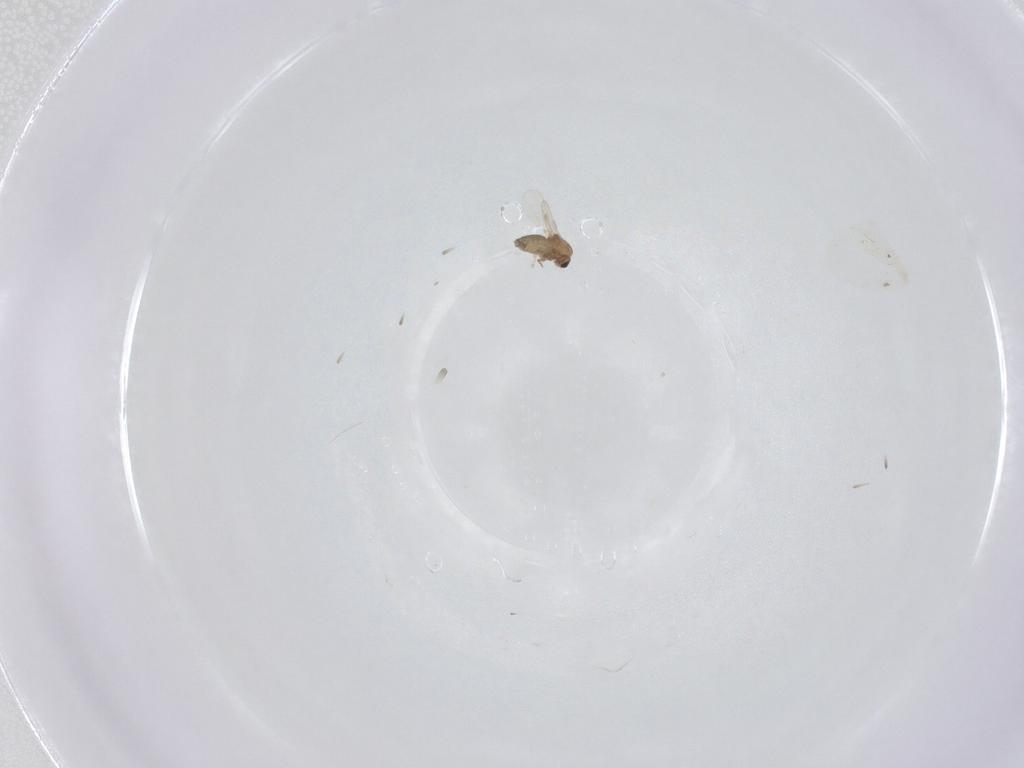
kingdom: Animalia
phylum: Arthropoda
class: Insecta
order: Diptera
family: Chironomidae
